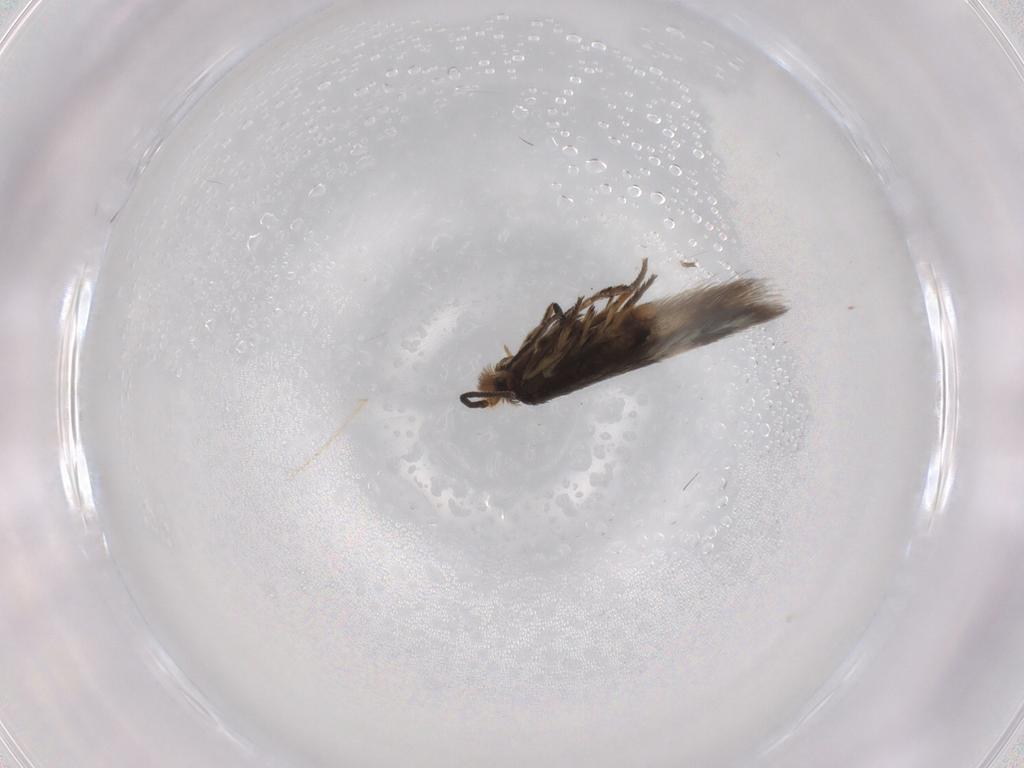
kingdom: Animalia
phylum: Arthropoda
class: Insecta
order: Lepidoptera
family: Nepticulidae
